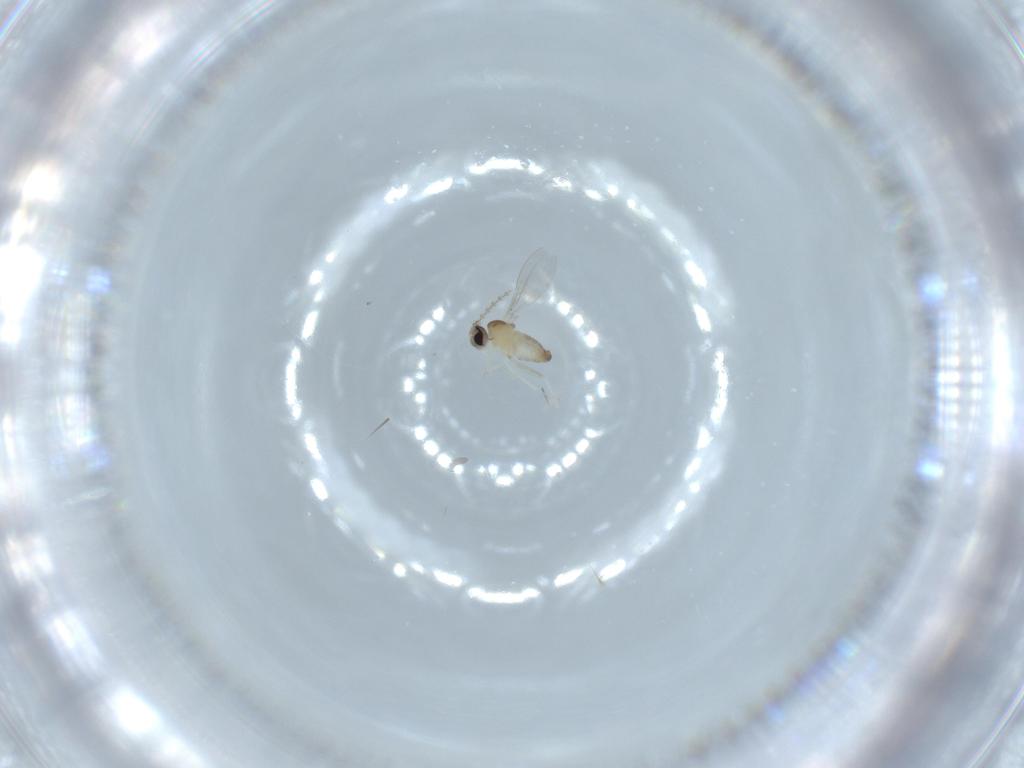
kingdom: Animalia
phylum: Arthropoda
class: Insecta
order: Diptera
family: Cecidomyiidae
